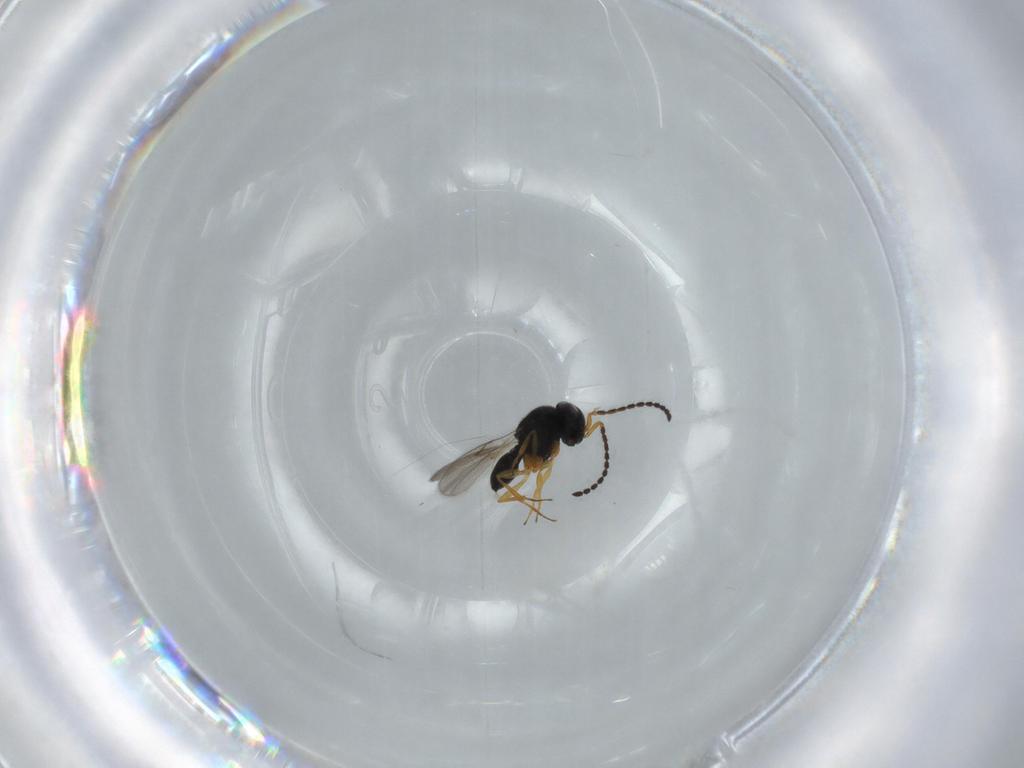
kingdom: Animalia
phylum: Arthropoda
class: Insecta
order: Hymenoptera
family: Scelionidae
